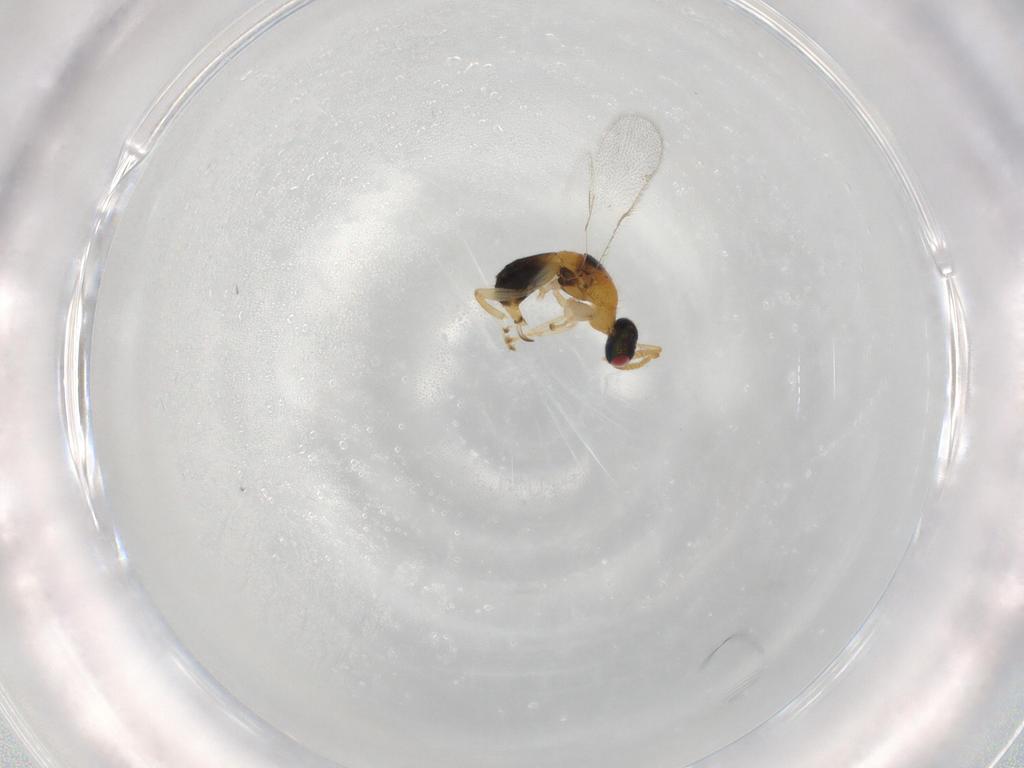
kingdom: Animalia
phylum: Arthropoda
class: Insecta
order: Hymenoptera
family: Torymidae
